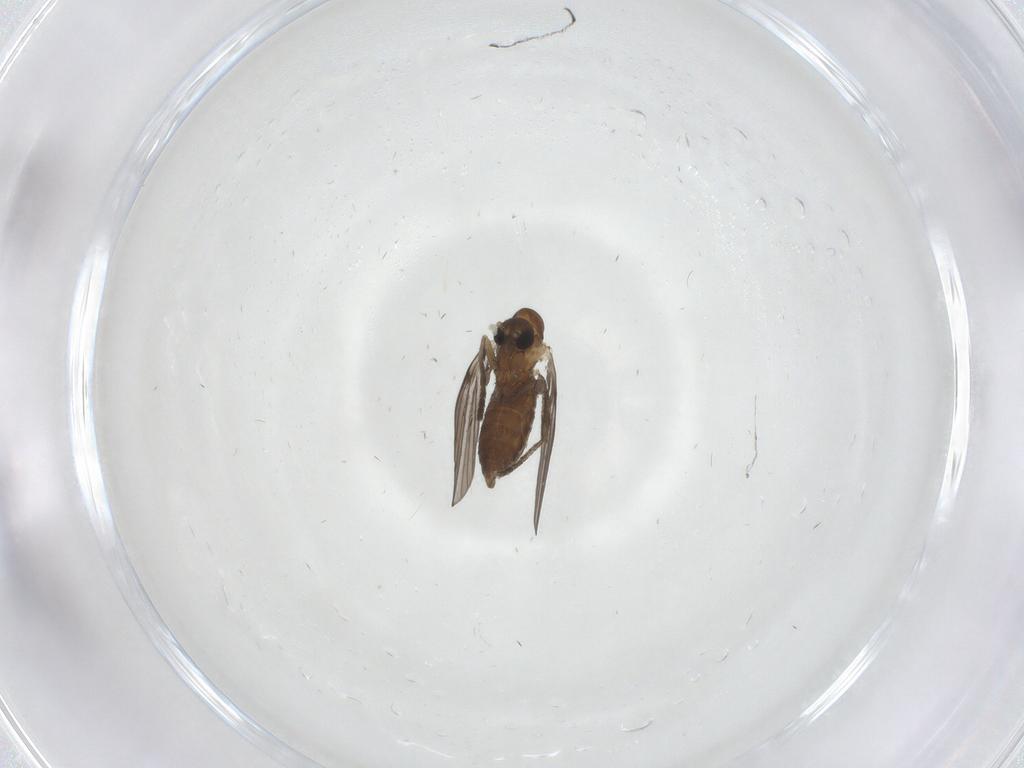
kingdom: Animalia
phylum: Arthropoda
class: Insecta
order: Diptera
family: Psychodidae
